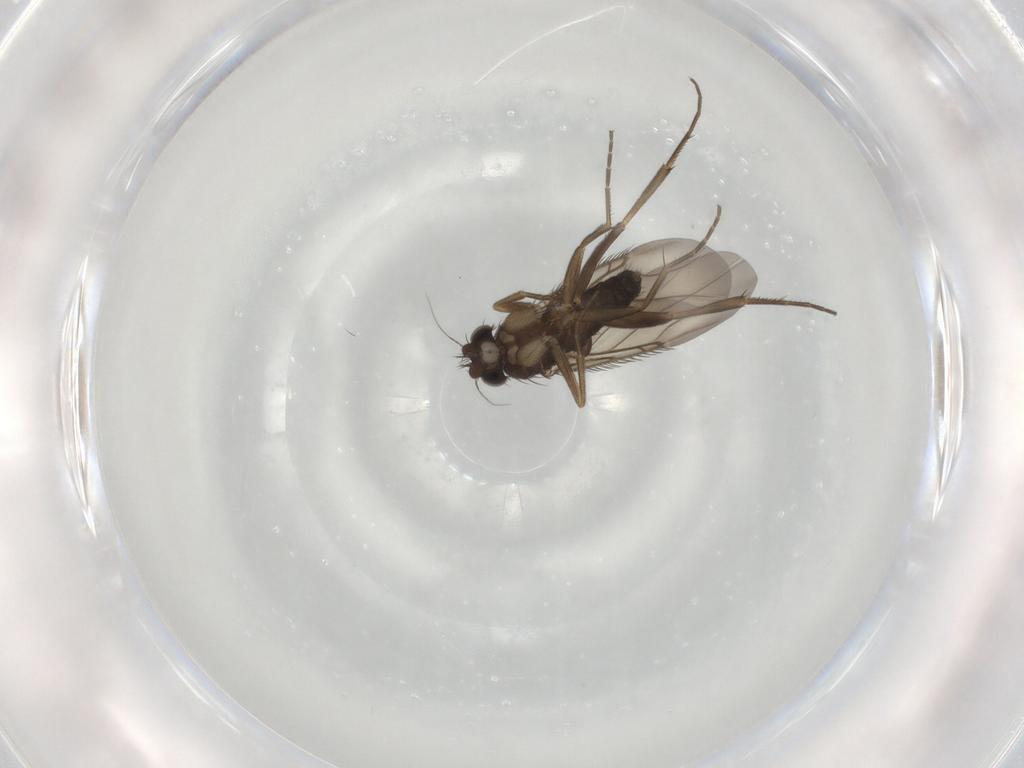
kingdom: Animalia
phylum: Arthropoda
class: Insecta
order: Diptera
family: Phoridae
